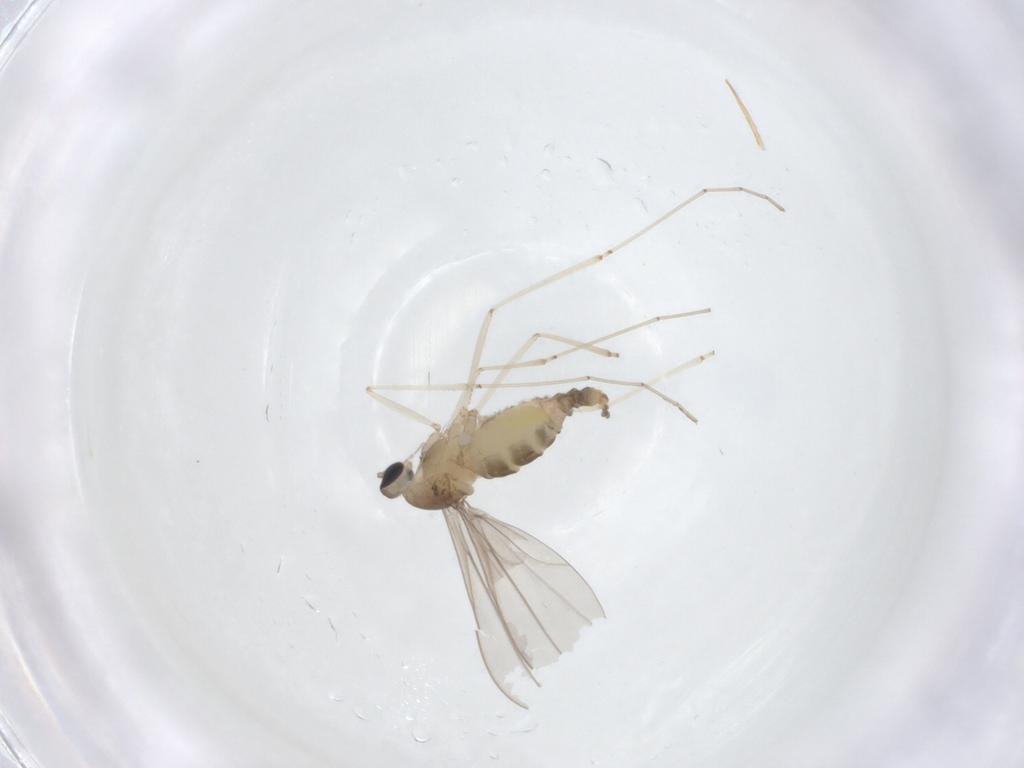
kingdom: Animalia
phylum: Arthropoda
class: Insecta
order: Diptera
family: Cecidomyiidae
